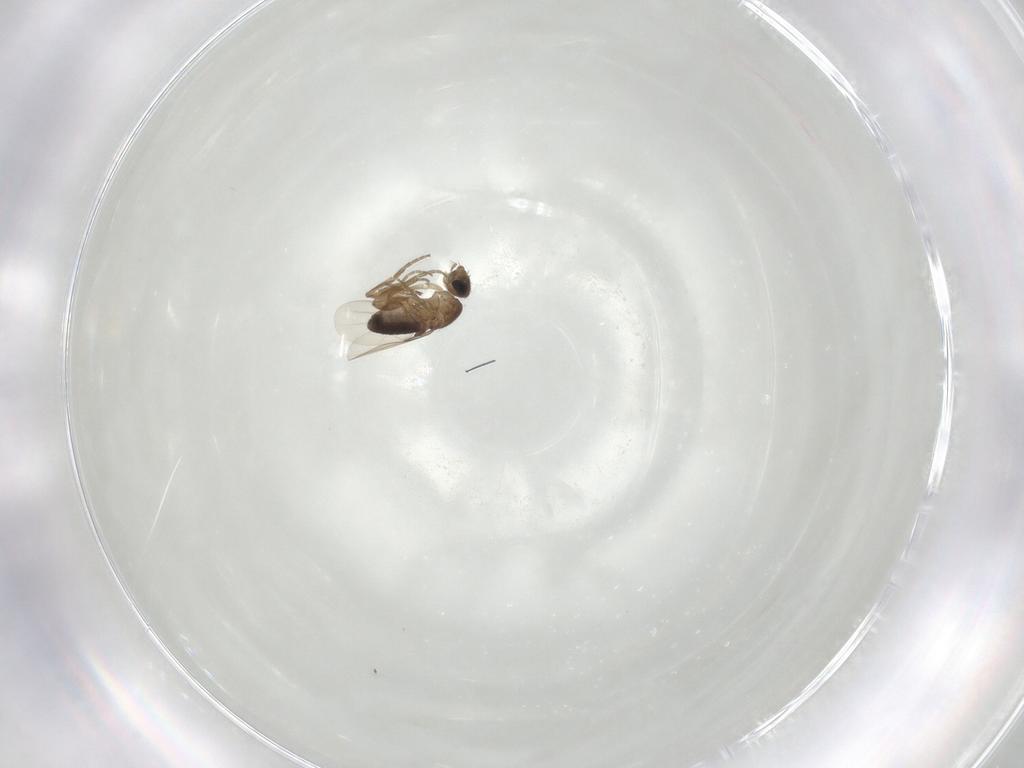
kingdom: Animalia
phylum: Arthropoda
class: Insecta
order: Diptera
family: Phoridae
